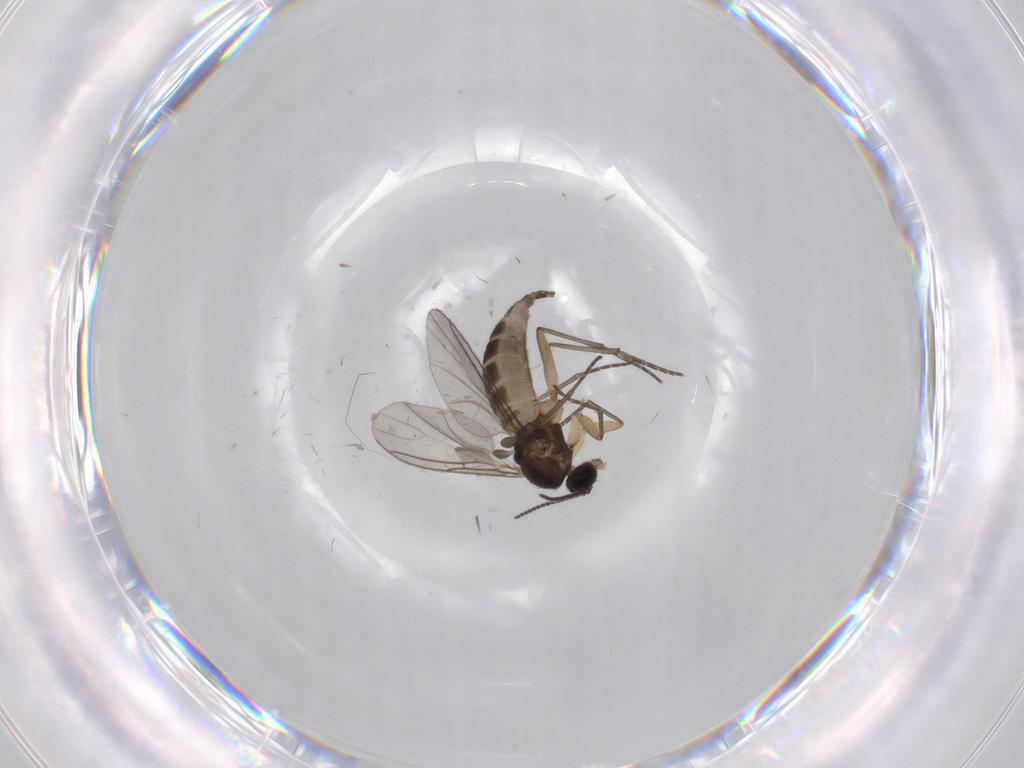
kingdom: Animalia
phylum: Arthropoda
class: Insecta
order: Diptera
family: Sciaridae
